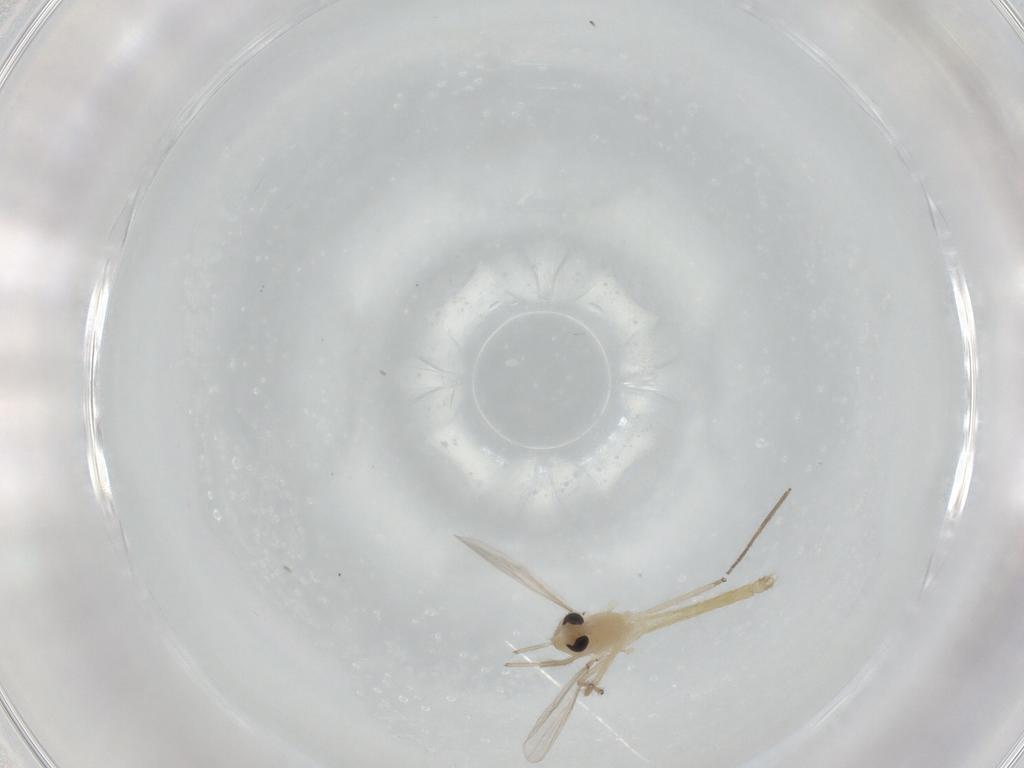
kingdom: Animalia
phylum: Arthropoda
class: Insecta
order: Diptera
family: Chironomidae
